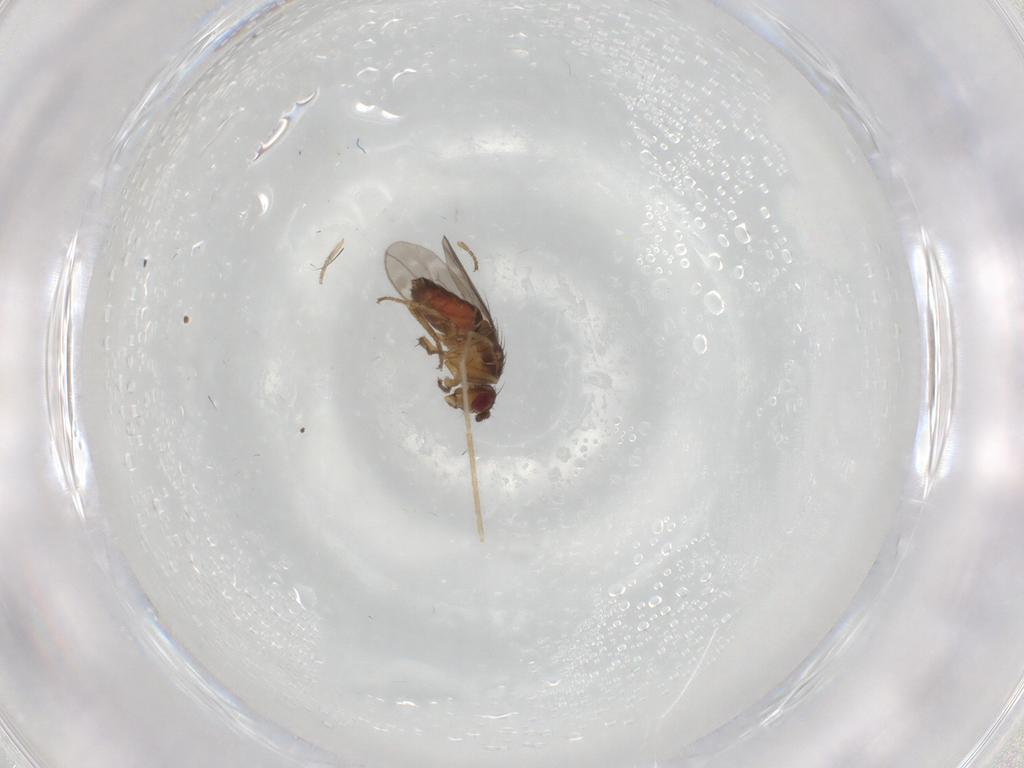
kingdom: Animalia
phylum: Arthropoda
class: Insecta
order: Diptera
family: Sphaeroceridae
